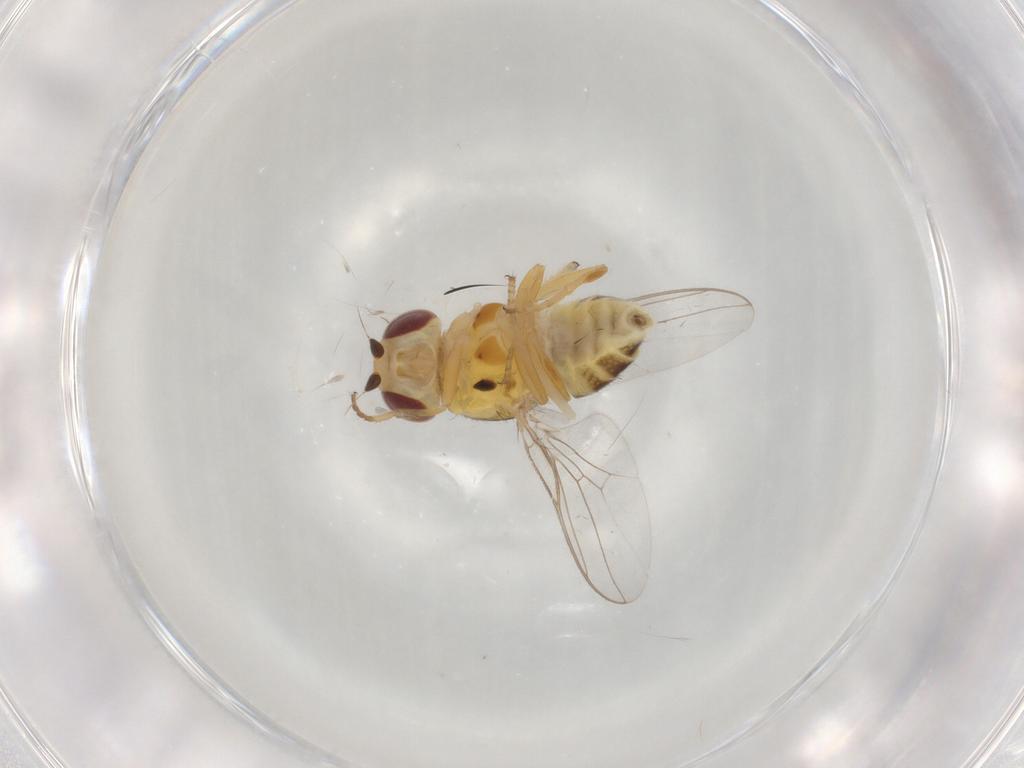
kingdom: Animalia
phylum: Arthropoda
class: Insecta
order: Diptera
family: Chloropidae
